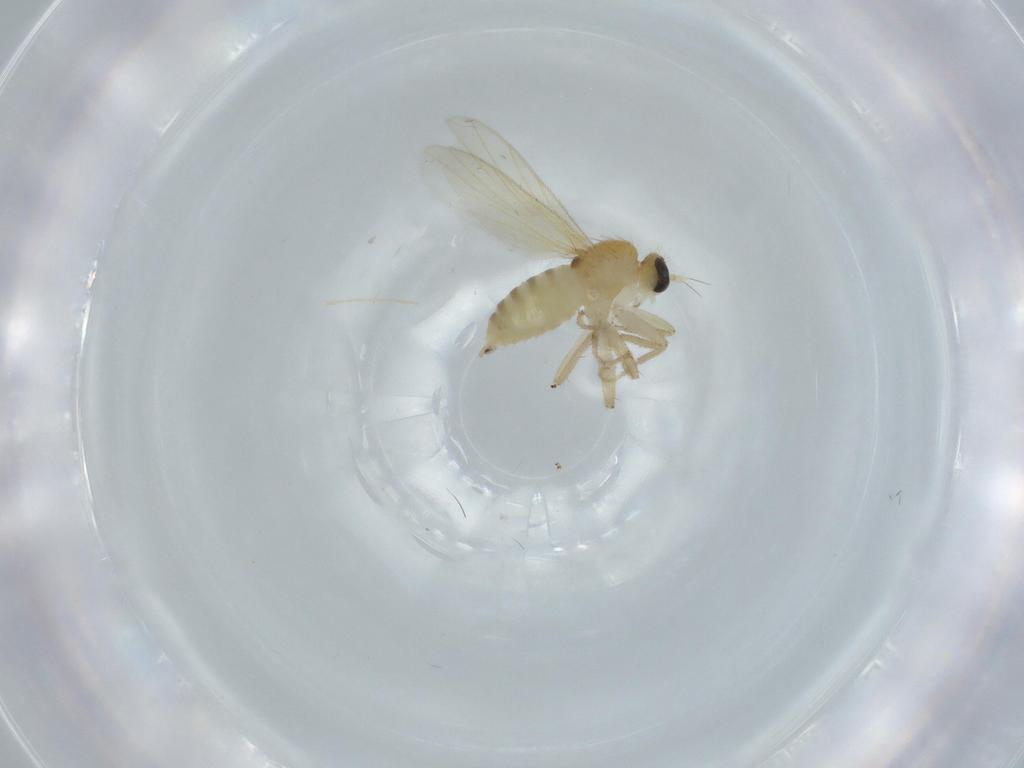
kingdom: Animalia
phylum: Arthropoda
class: Insecta
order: Diptera
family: Hybotidae
